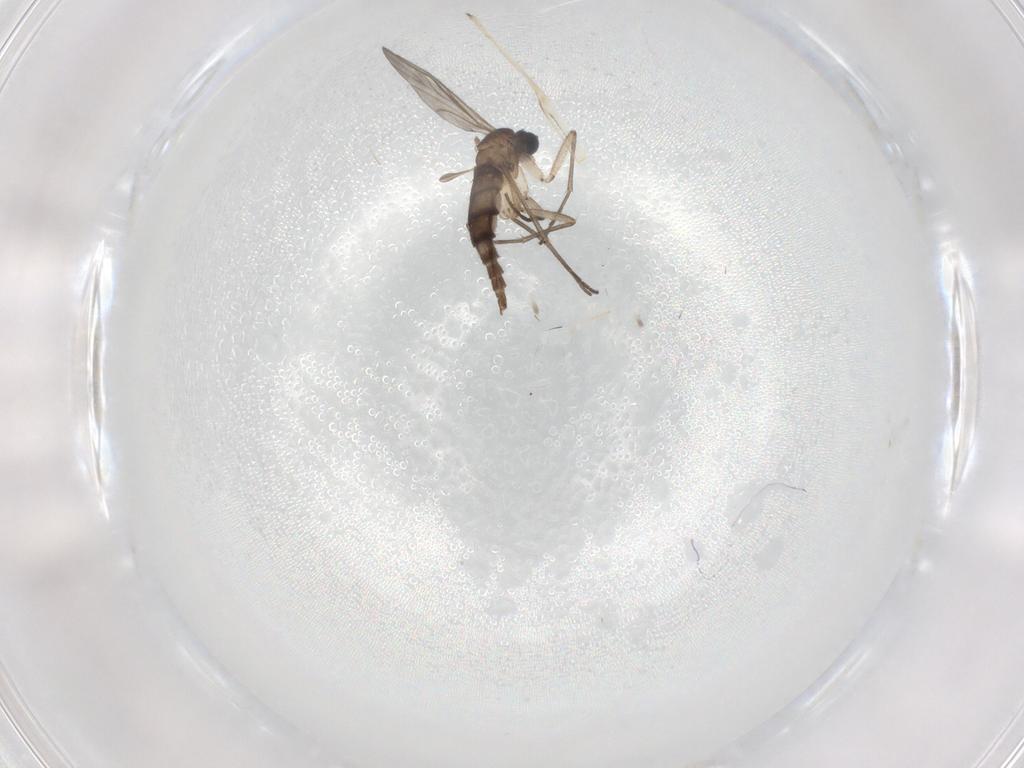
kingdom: Animalia
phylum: Arthropoda
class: Insecta
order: Diptera
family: Sciaridae
